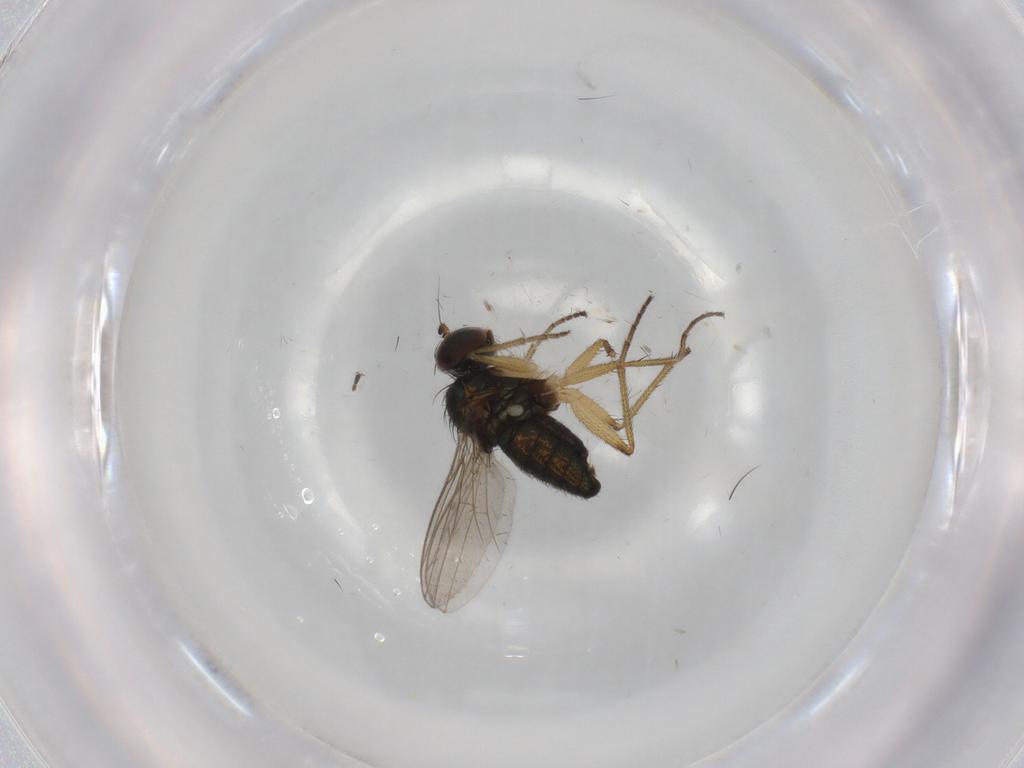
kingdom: Animalia
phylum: Arthropoda
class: Insecta
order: Diptera
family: Dolichopodidae
